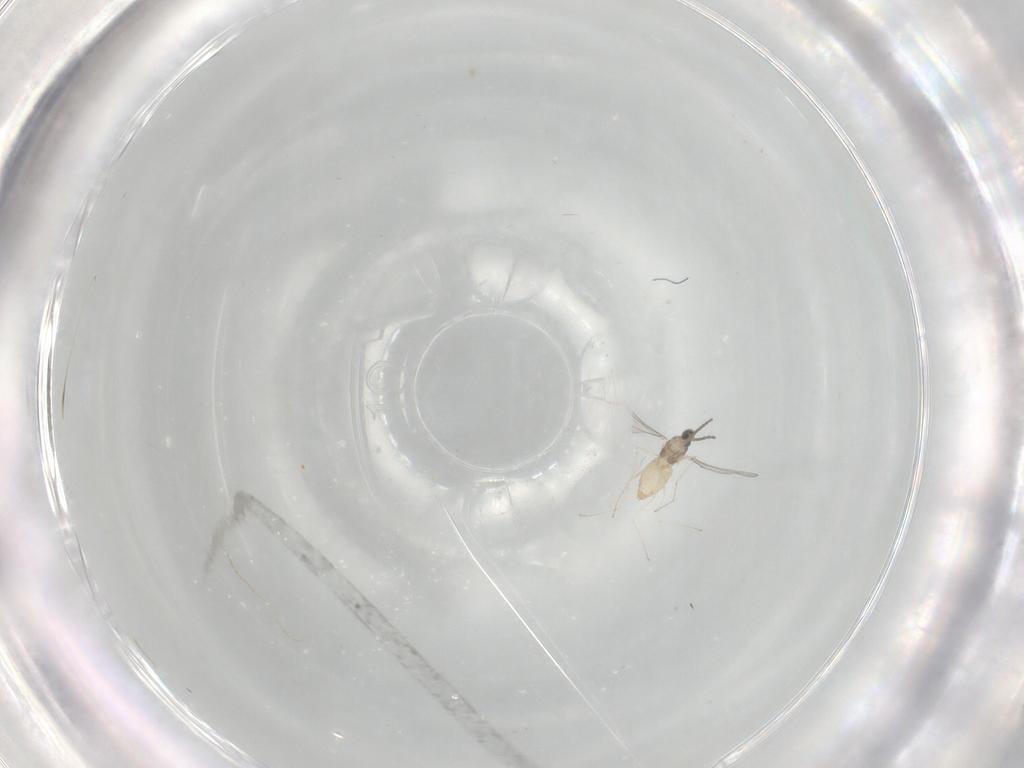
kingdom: Animalia
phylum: Arthropoda
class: Insecta
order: Diptera
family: Cecidomyiidae
